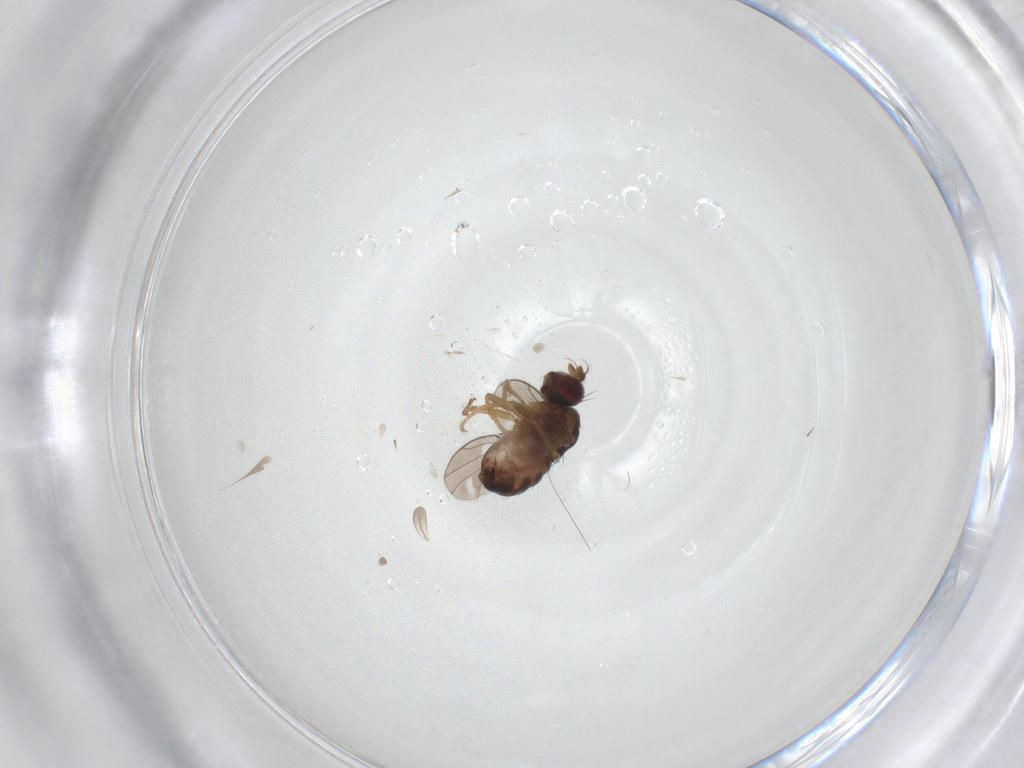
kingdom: Animalia
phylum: Arthropoda
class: Insecta
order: Diptera
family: Ephydridae
